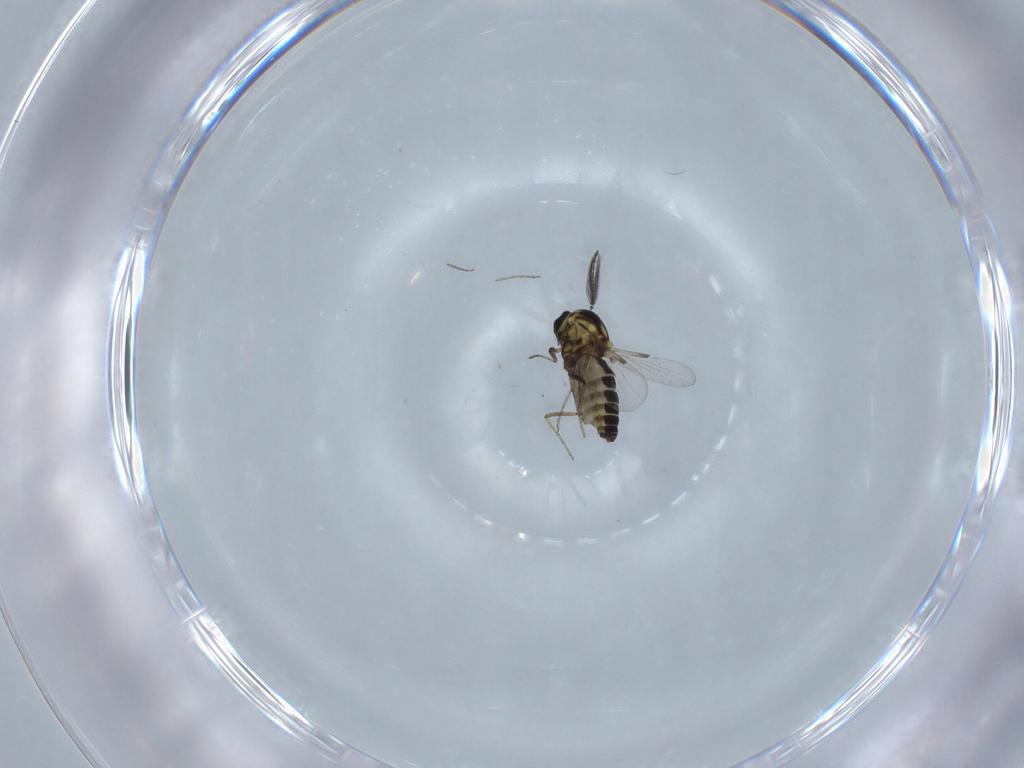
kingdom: Animalia
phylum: Arthropoda
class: Insecta
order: Diptera
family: Ceratopogonidae
